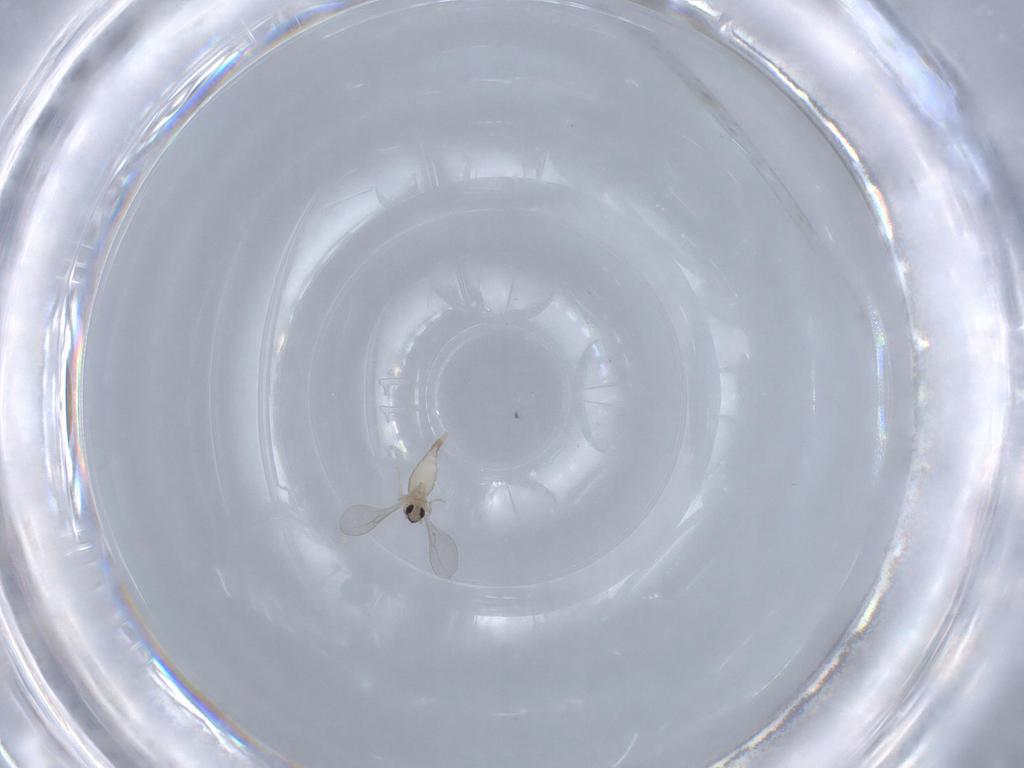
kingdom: Animalia
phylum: Arthropoda
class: Insecta
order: Diptera
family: Cecidomyiidae
